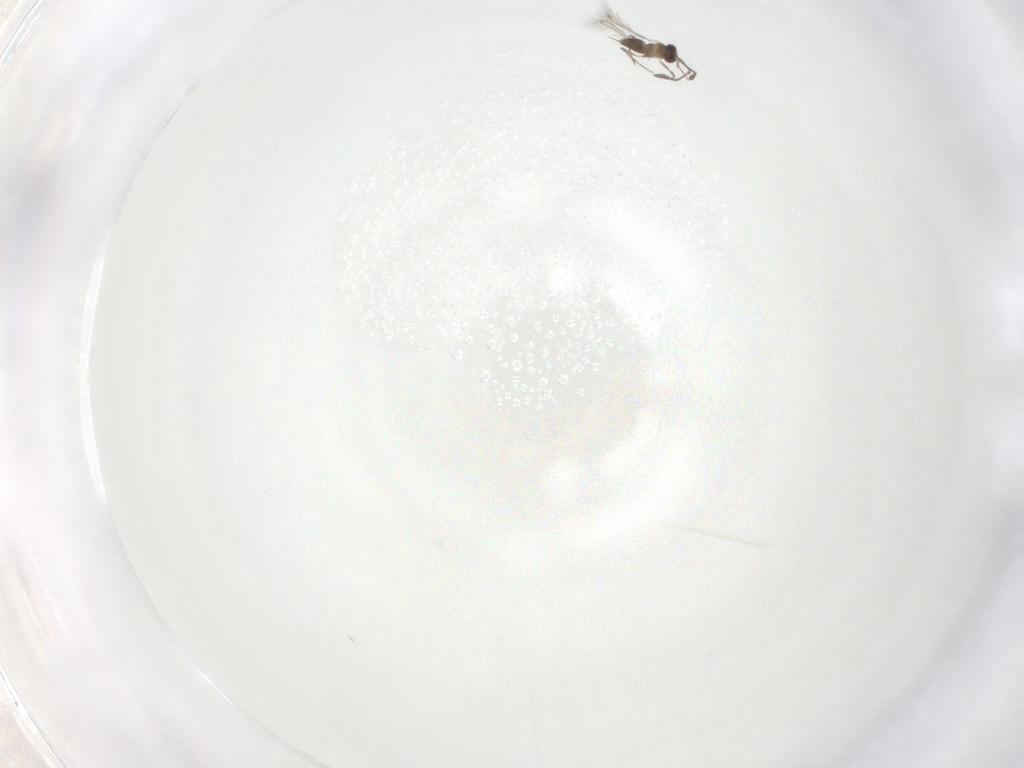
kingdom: Animalia
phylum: Arthropoda
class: Insecta
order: Hymenoptera
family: Mymaridae
